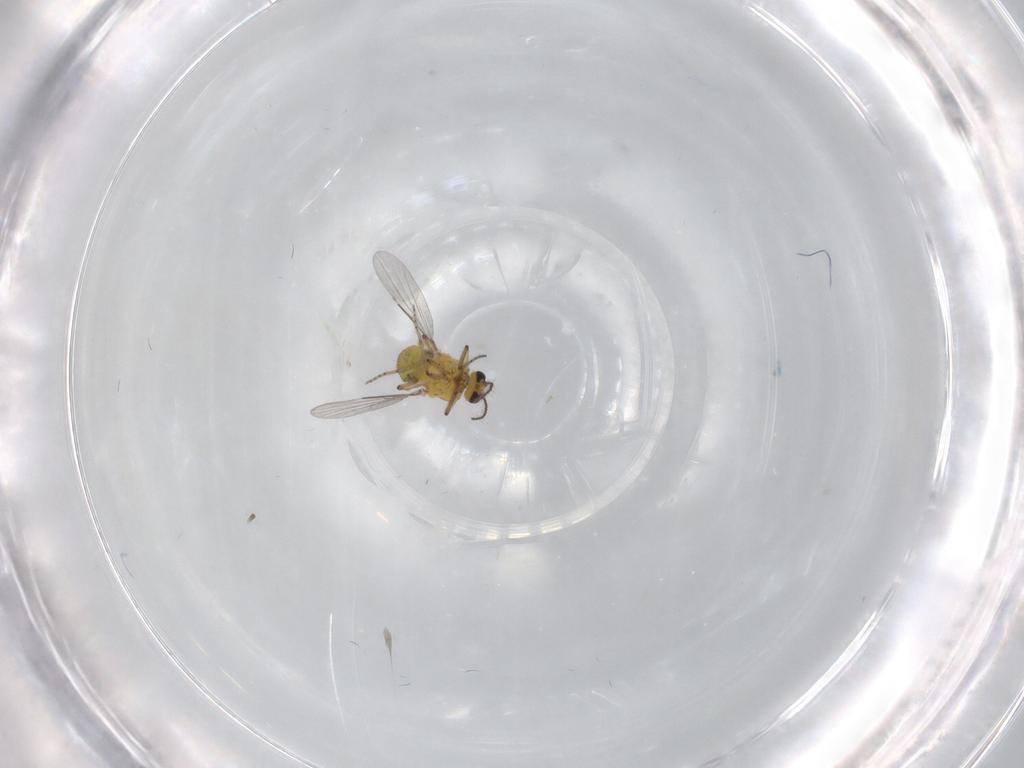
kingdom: Animalia
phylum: Arthropoda
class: Insecta
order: Diptera
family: Ceratopogonidae
